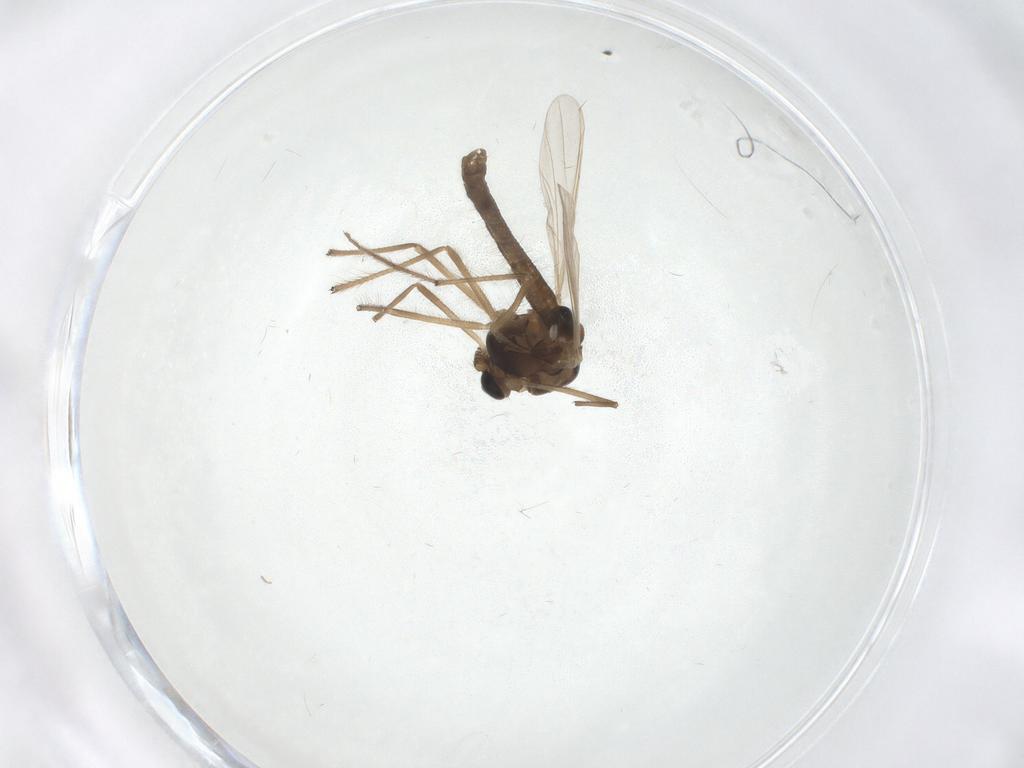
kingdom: Animalia
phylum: Arthropoda
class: Insecta
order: Diptera
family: Chironomidae
